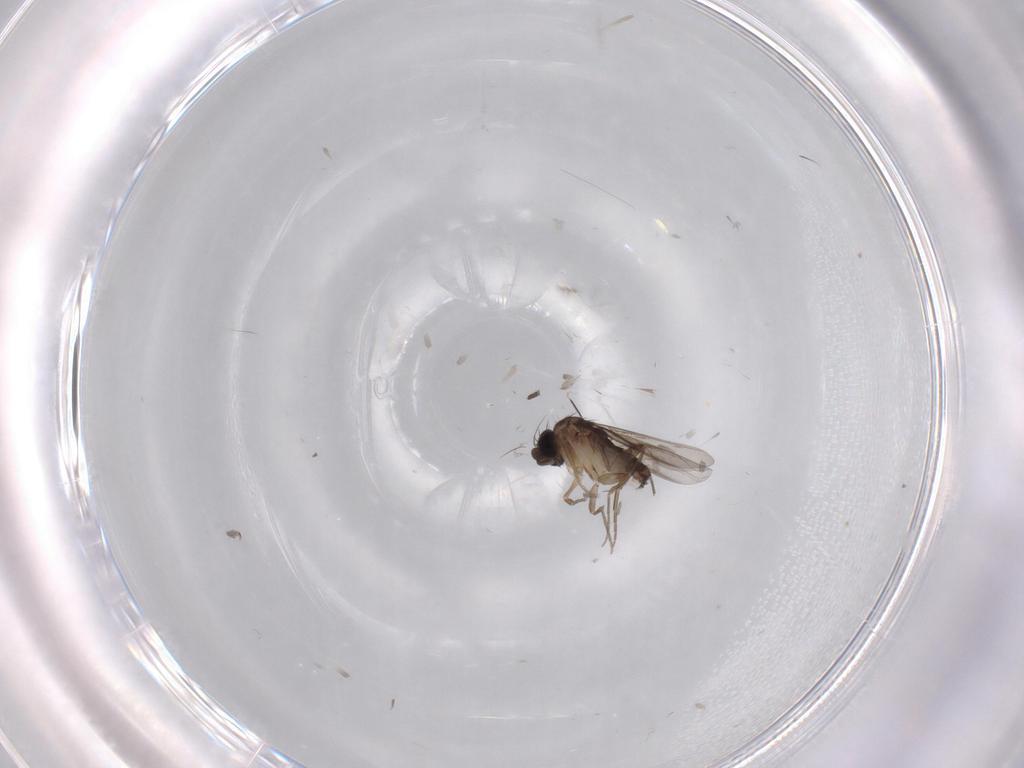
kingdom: Animalia
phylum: Arthropoda
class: Insecta
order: Diptera
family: Phoridae
